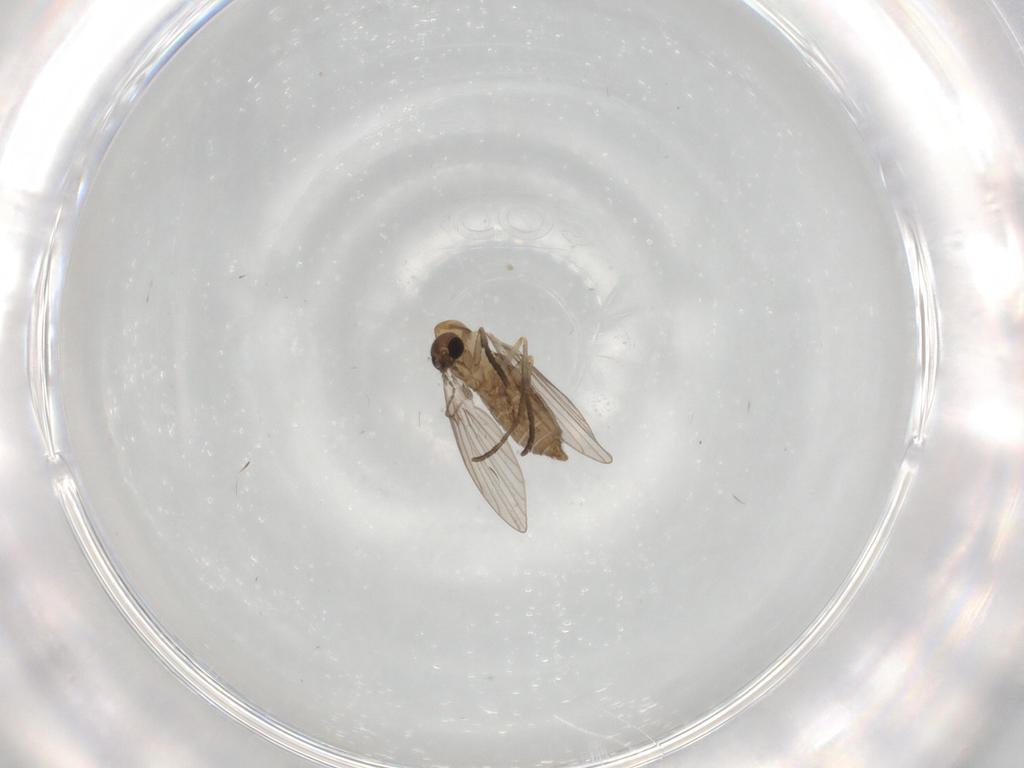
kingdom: Animalia
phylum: Arthropoda
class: Insecta
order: Diptera
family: Psychodidae
